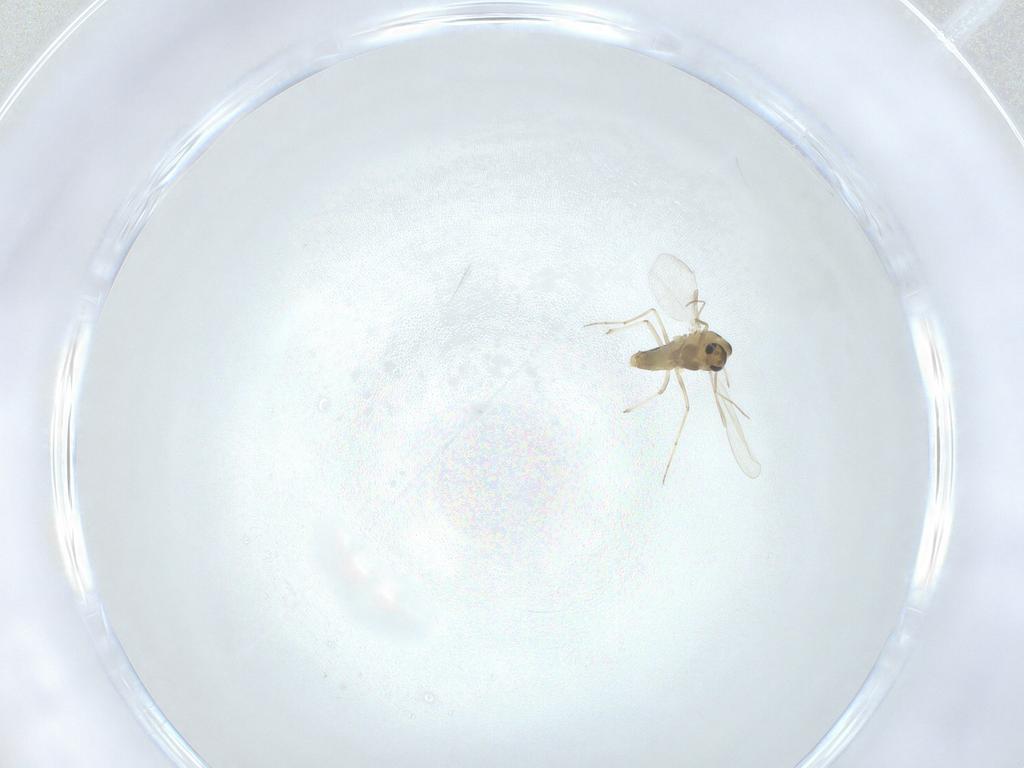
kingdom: Animalia
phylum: Arthropoda
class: Insecta
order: Diptera
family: Chironomidae
